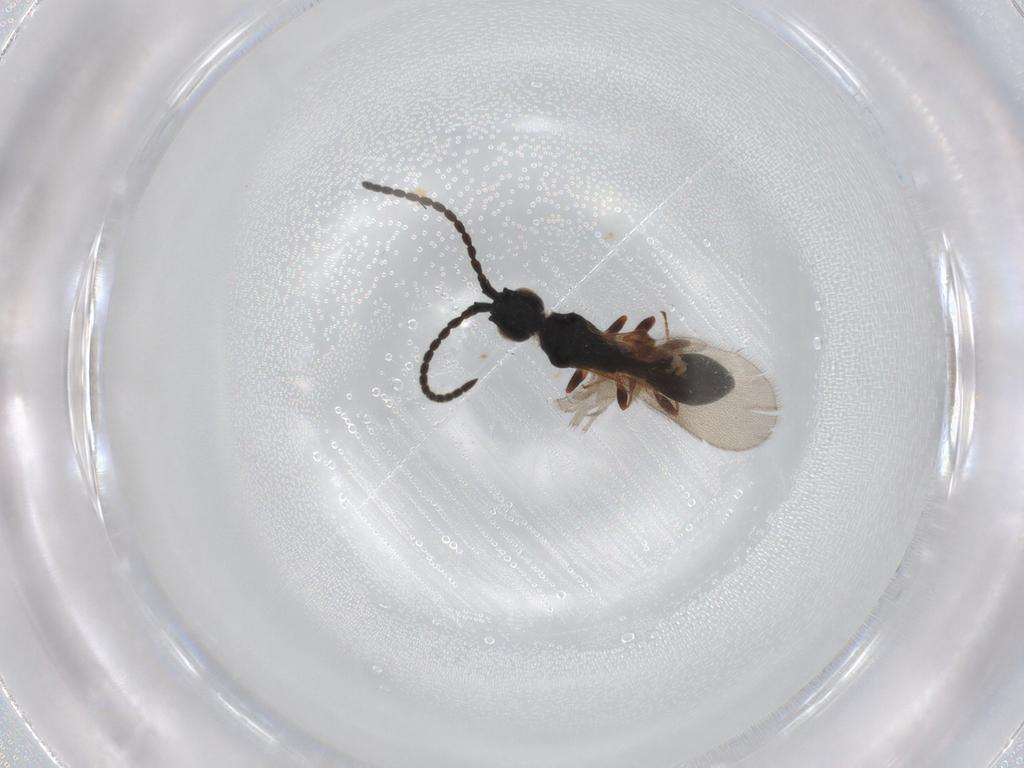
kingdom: Animalia
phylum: Arthropoda
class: Insecta
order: Hymenoptera
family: Diapriidae
